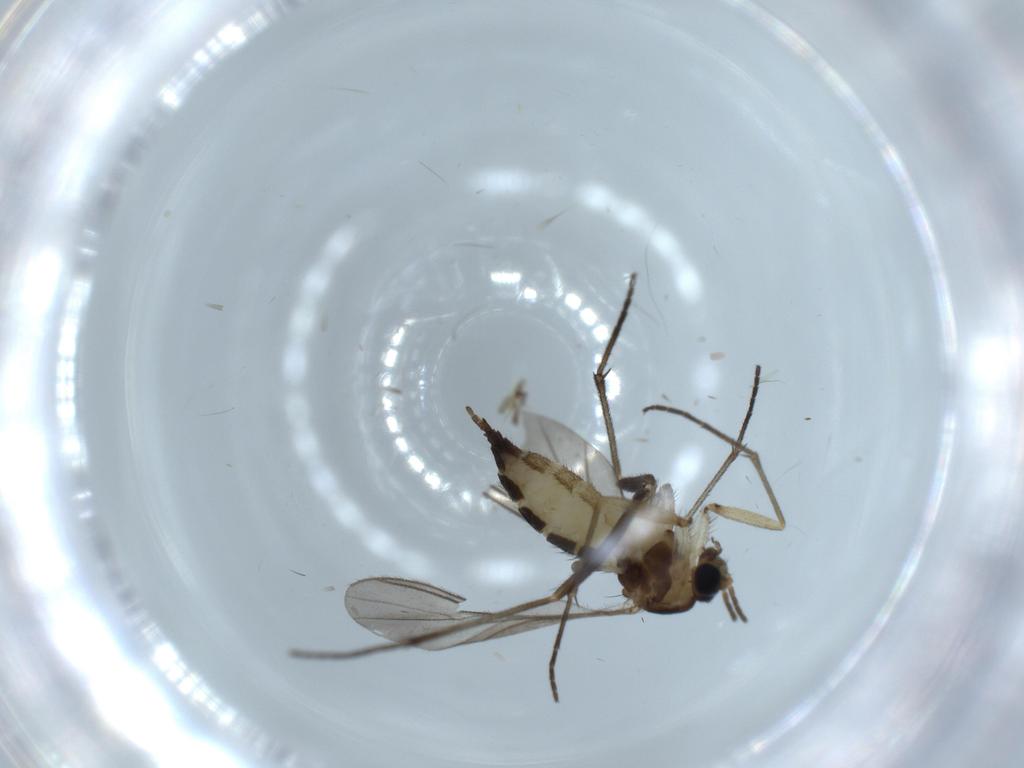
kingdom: Animalia
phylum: Arthropoda
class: Insecta
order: Diptera
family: Sciaridae
